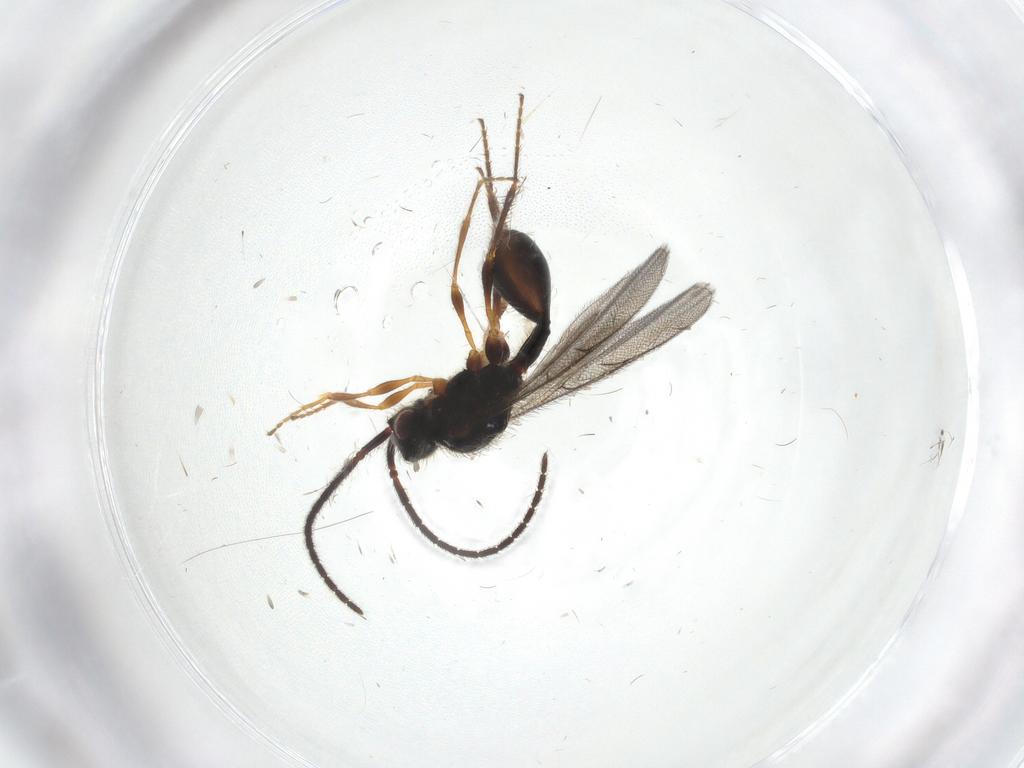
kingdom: Animalia
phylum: Arthropoda
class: Insecta
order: Hymenoptera
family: Diapriidae
